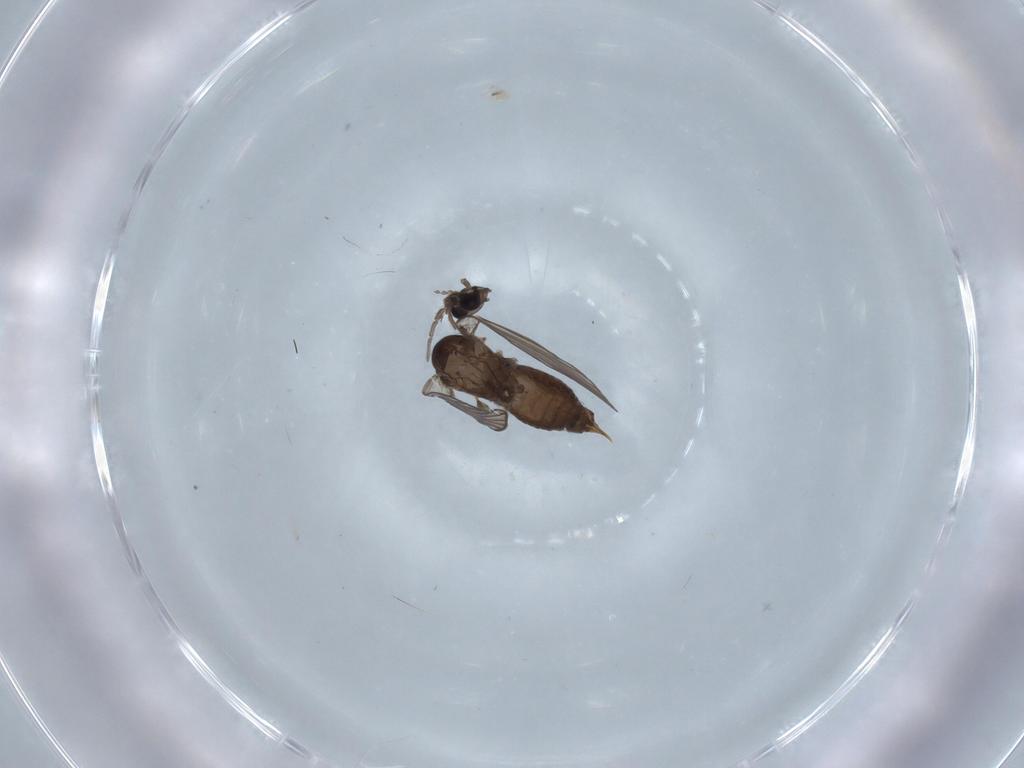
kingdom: Animalia
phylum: Arthropoda
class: Insecta
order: Diptera
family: Psychodidae
